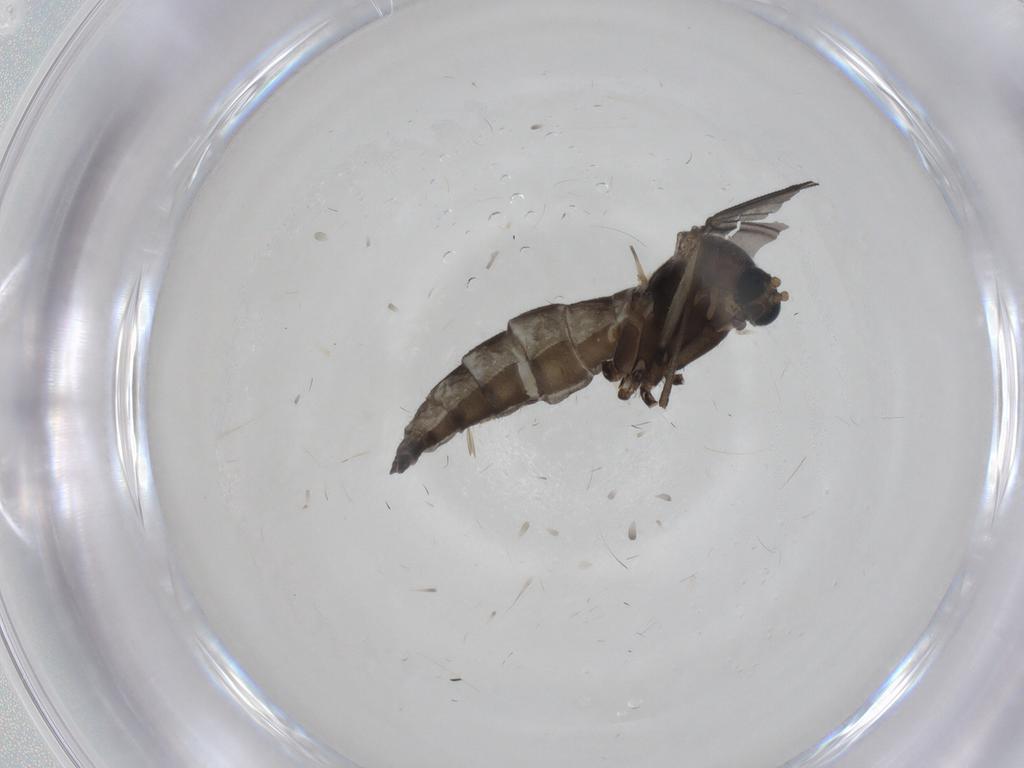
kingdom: Animalia
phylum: Arthropoda
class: Insecta
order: Diptera
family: Sciaridae
